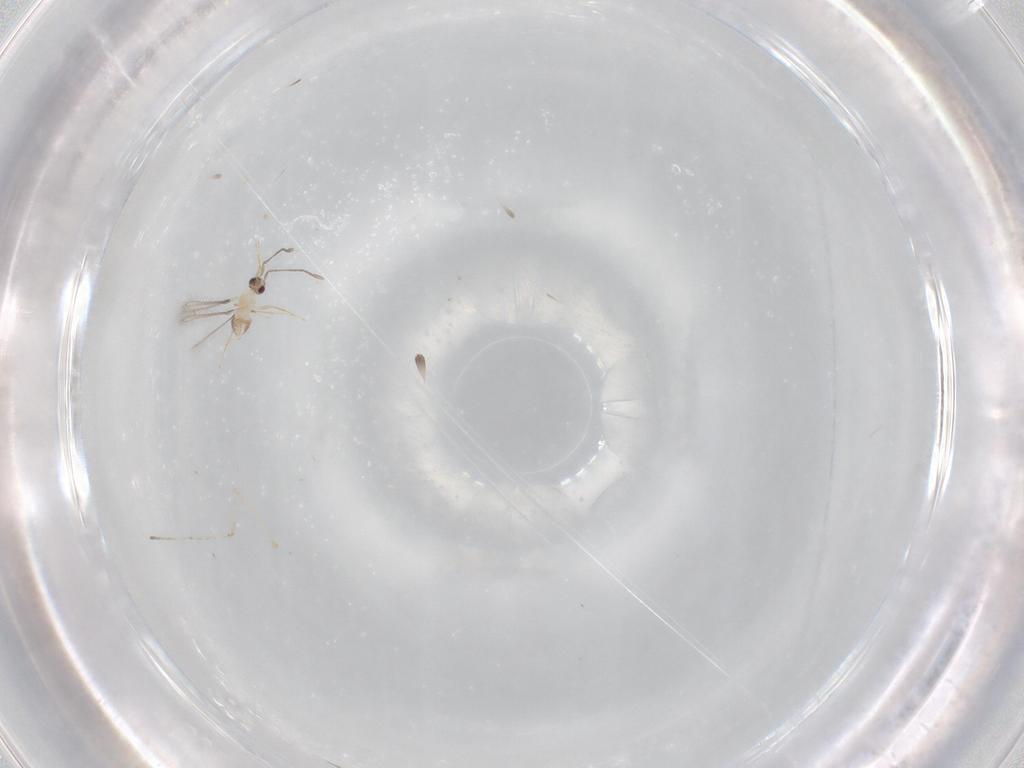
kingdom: Animalia
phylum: Arthropoda
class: Insecta
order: Hymenoptera
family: Mymaridae
